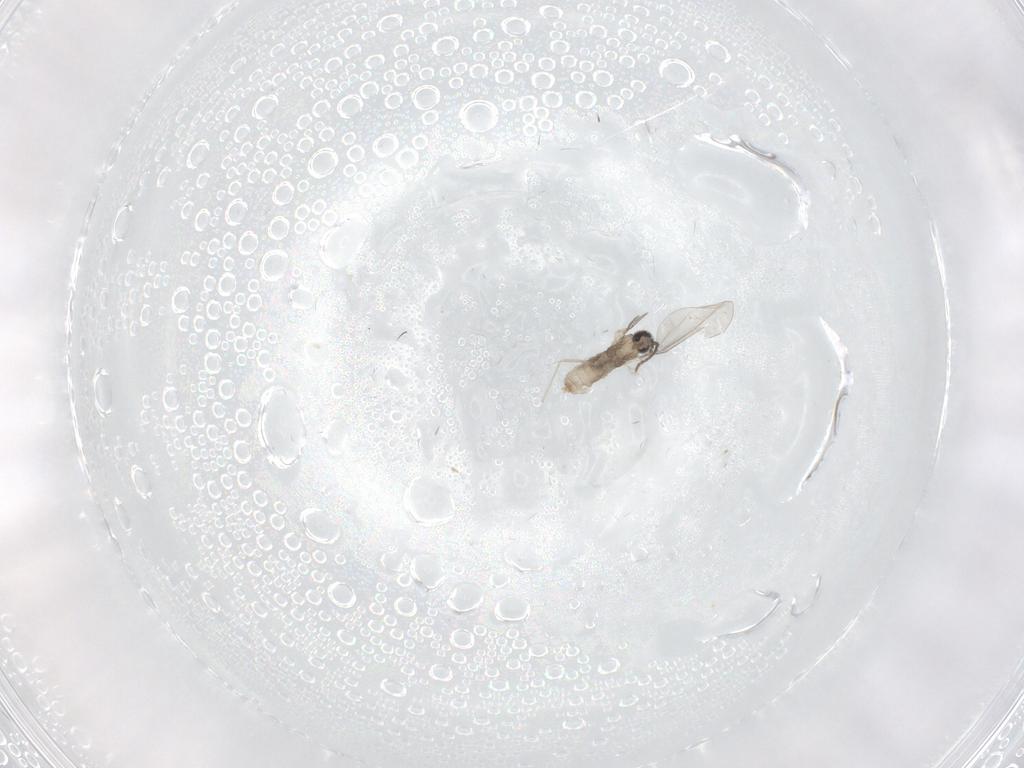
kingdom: Animalia
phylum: Arthropoda
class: Insecta
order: Diptera
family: Cecidomyiidae
